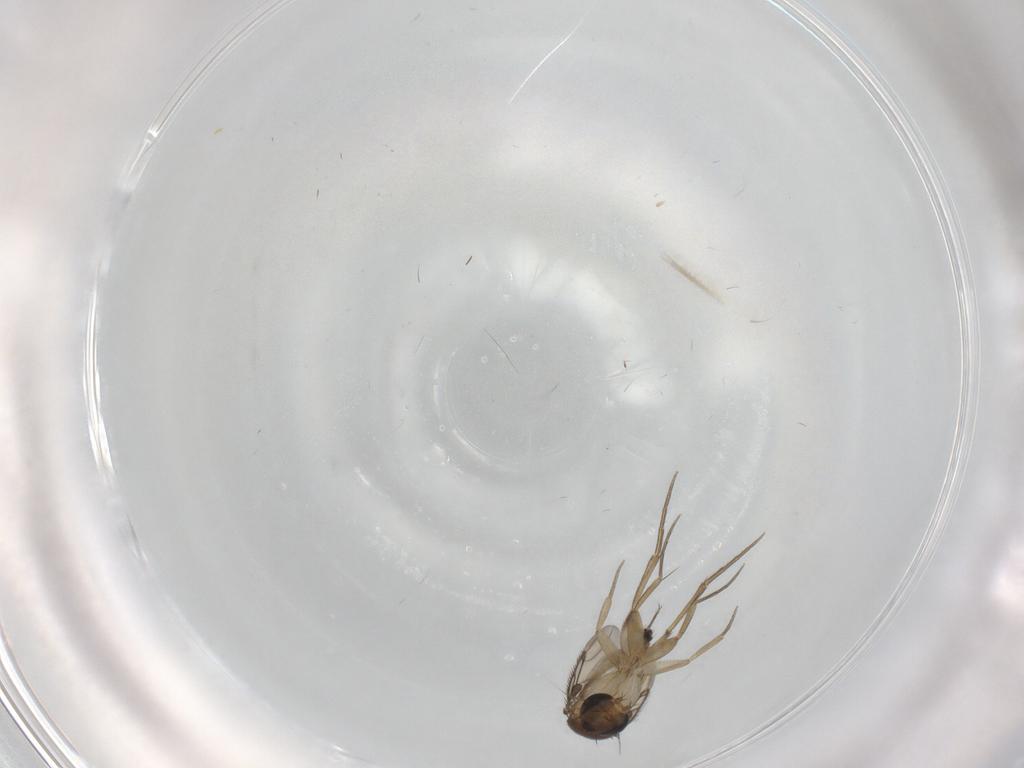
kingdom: Animalia
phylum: Arthropoda
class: Insecta
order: Diptera
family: Phoridae
